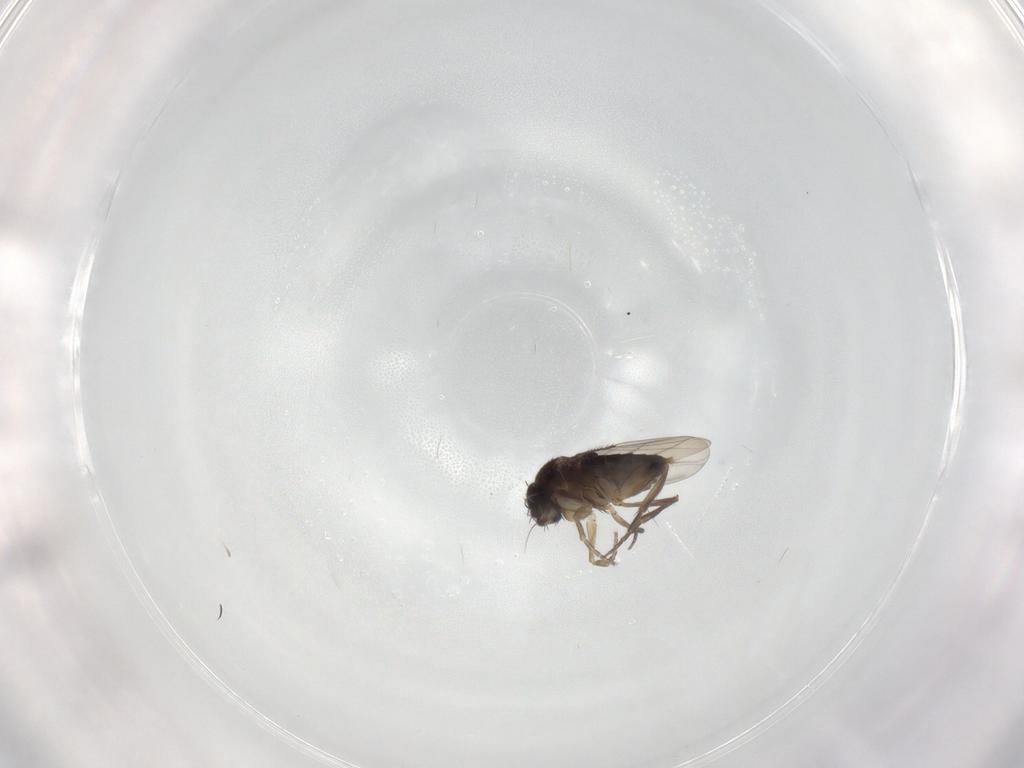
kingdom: Animalia
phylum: Arthropoda
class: Insecta
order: Diptera
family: Phoridae
